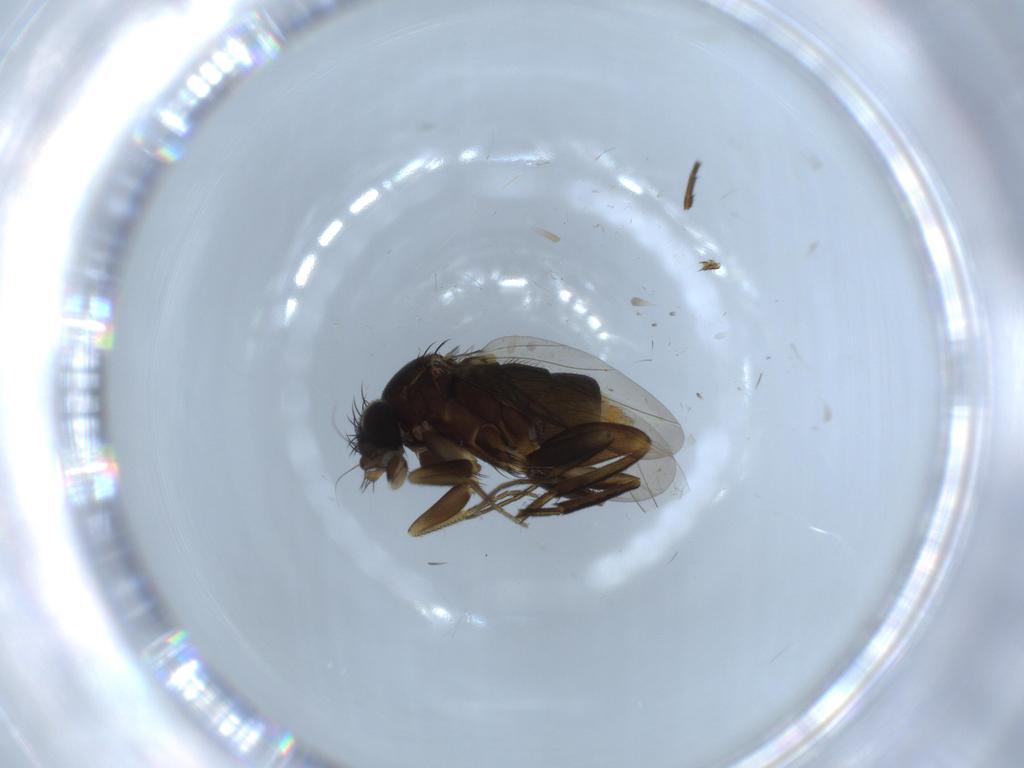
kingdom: Animalia
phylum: Arthropoda
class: Insecta
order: Diptera
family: Phoridae
